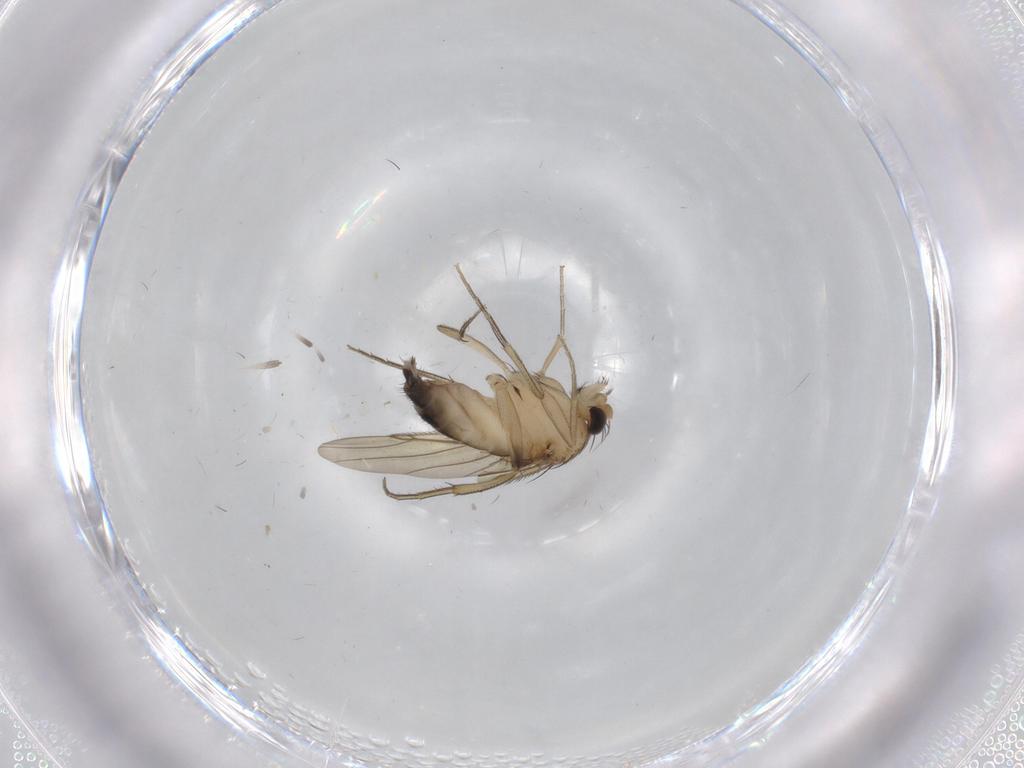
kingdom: Animalia
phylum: Arthropoda
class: Insecta
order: Diptera
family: Phoridae
